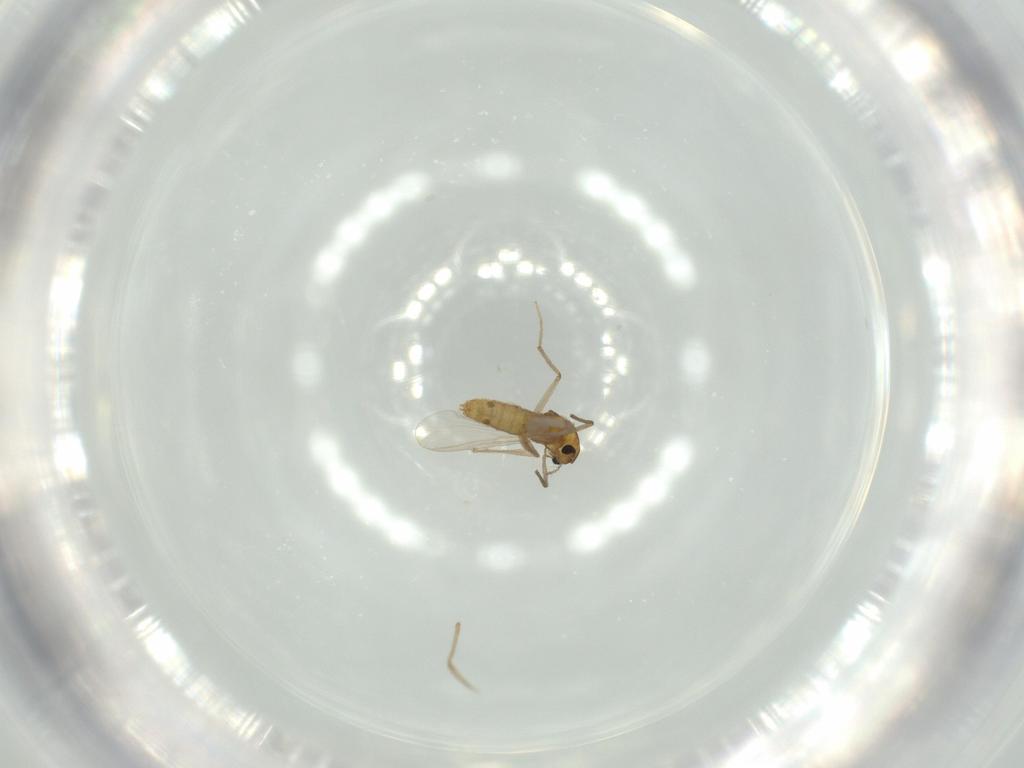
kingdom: Animalia
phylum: Arthropoda
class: Insecta
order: Diptera
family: Chironomidae
